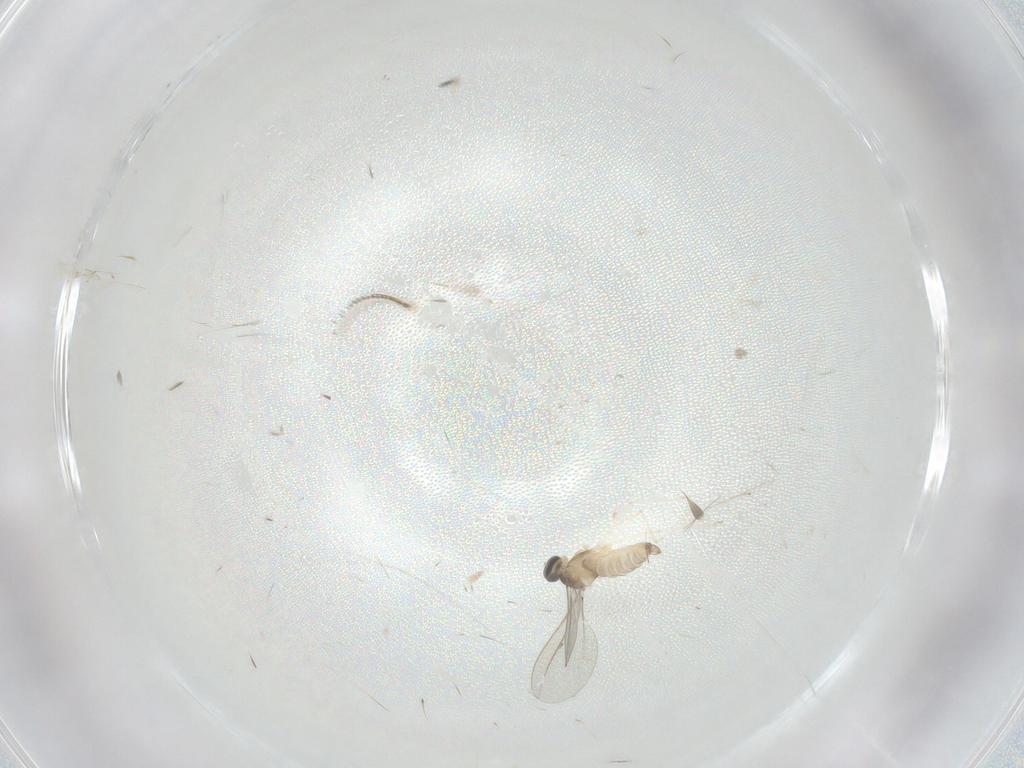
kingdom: Animalia
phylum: Arthropoda
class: Insecta
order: Diptera
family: Cecidomyiidae
